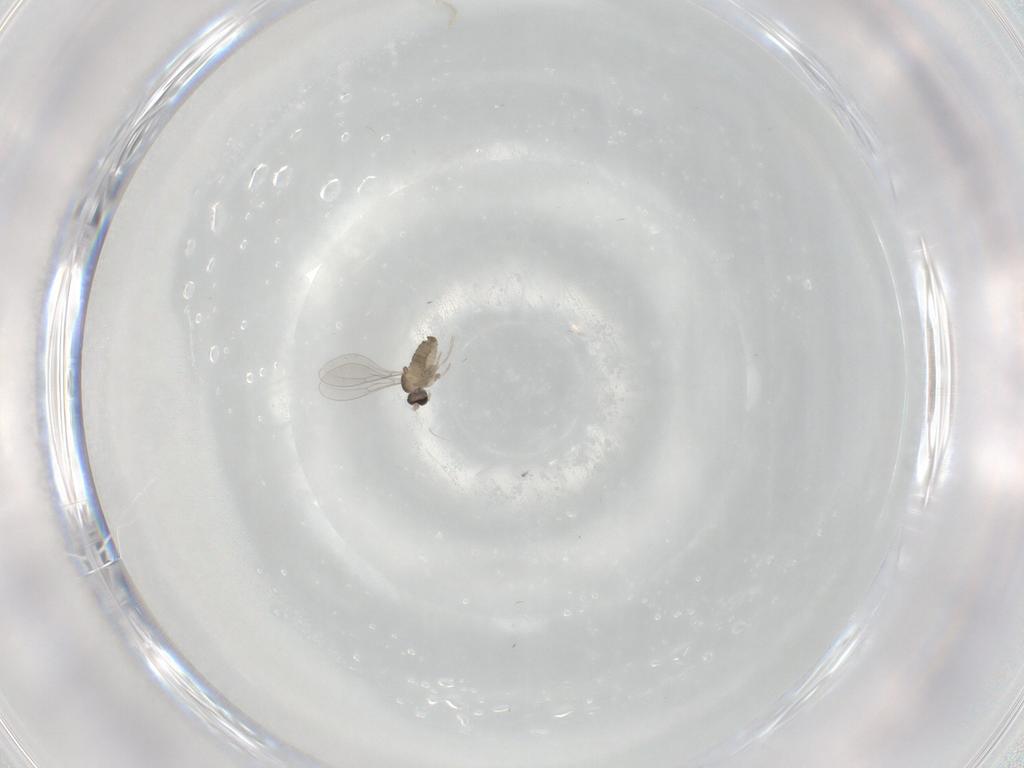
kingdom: Animalia
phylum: Arthropoda
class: Insecta
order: Diptera
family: Cecidomyiidae
